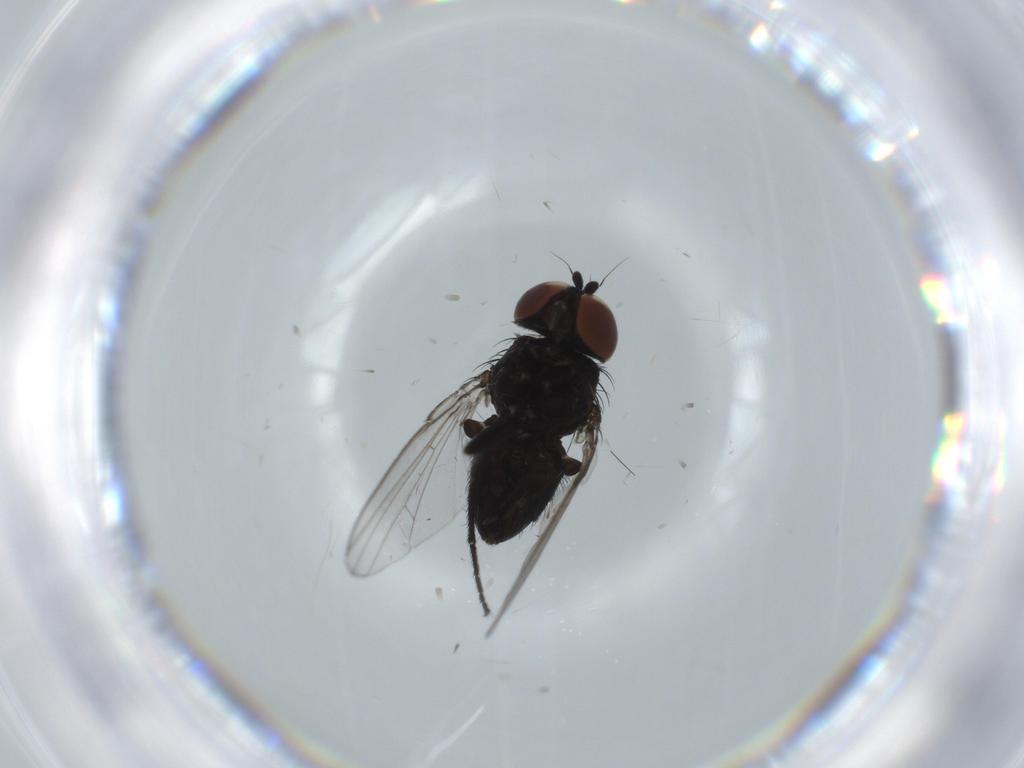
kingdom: Animalia
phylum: Arthropoda
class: Insecta
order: Diptera
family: Milichiidae
